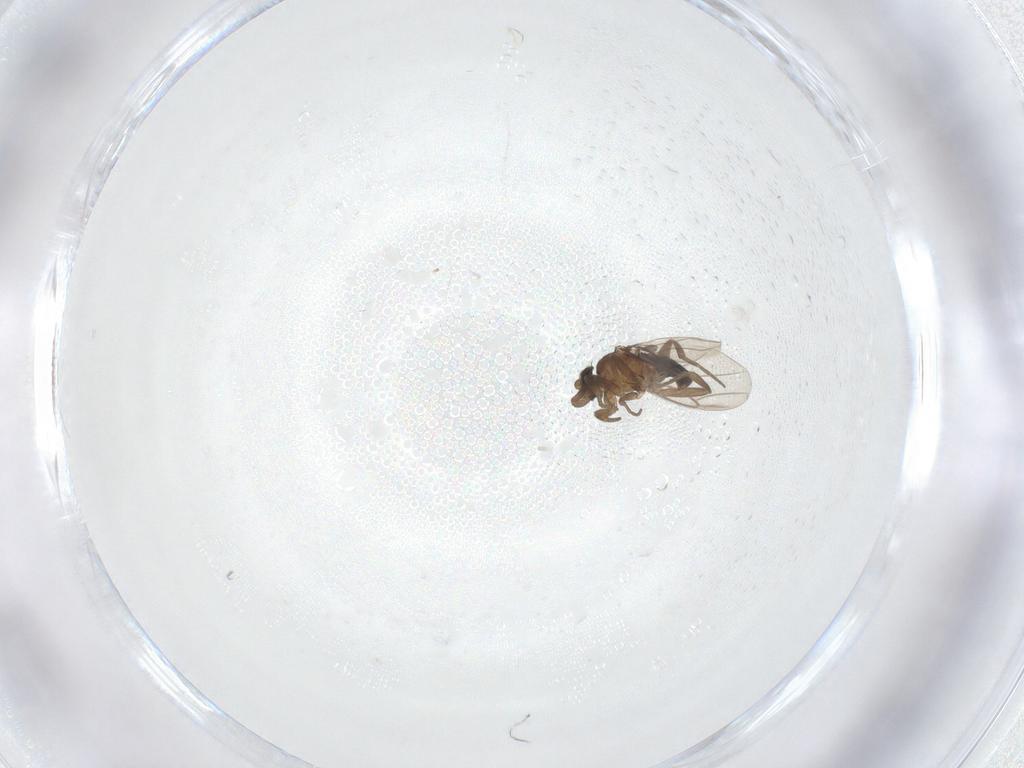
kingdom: Animalia
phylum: Arthropoda
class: Insecta
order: Diptera
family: Phoridae
